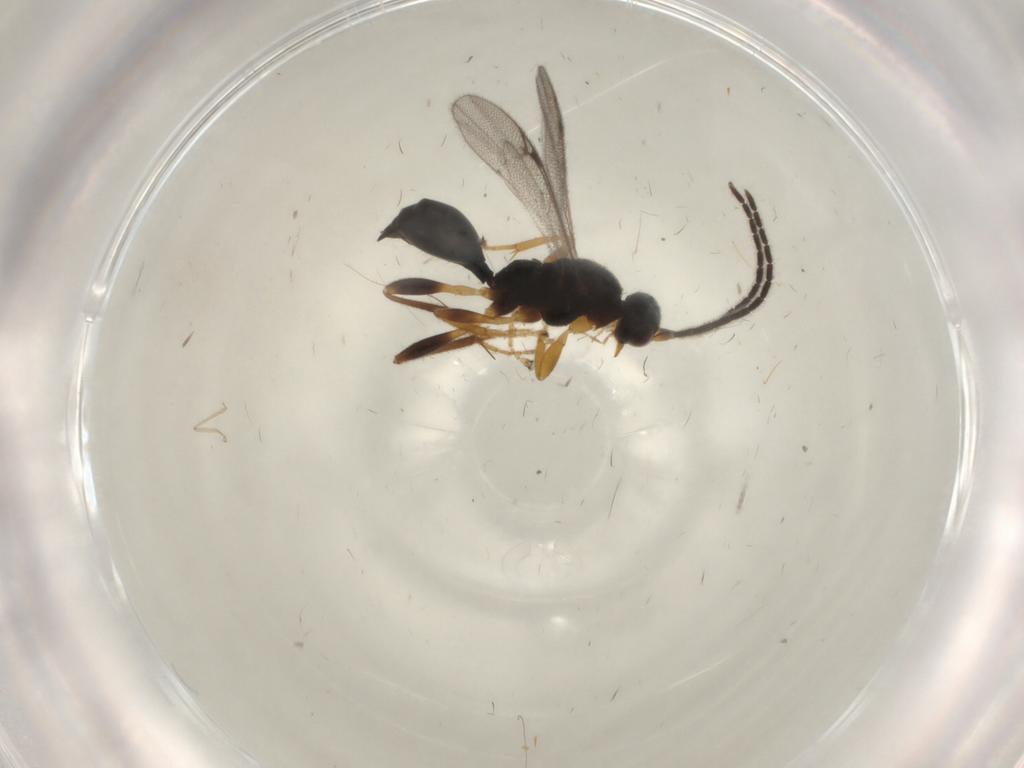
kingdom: Animalia
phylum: Arthropoda
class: Insecta
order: Hymenoptera
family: Proctotrupidae
